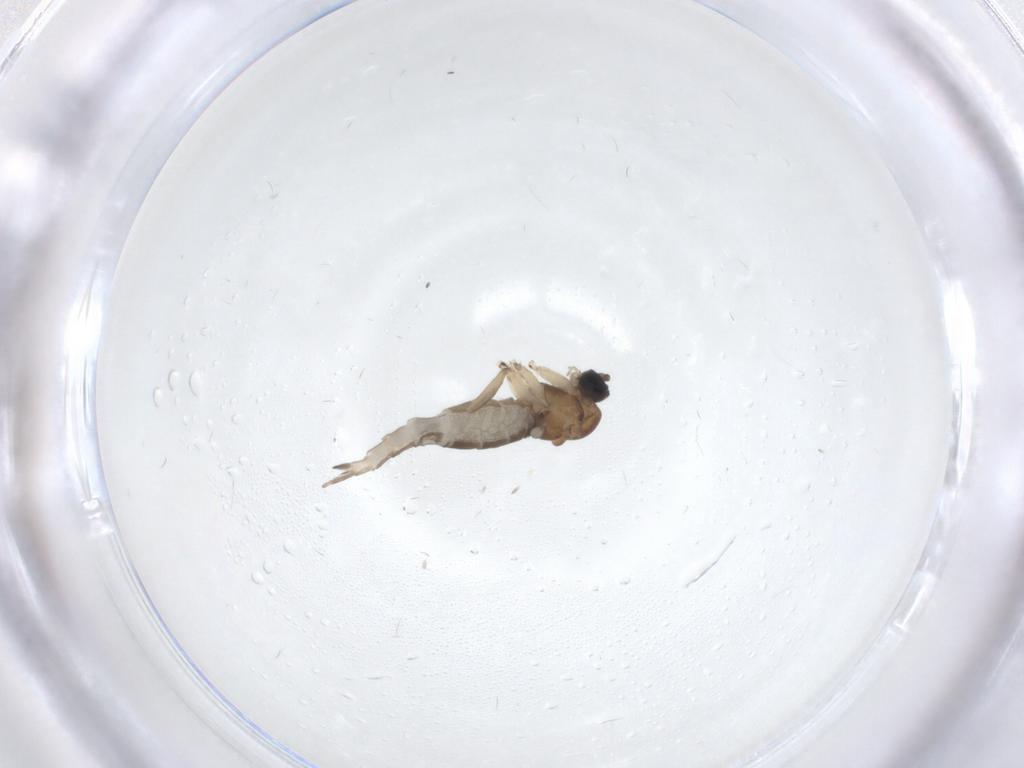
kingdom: Animalia
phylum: Arthropoda
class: Insecta
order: Diptera
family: Sciaridae
